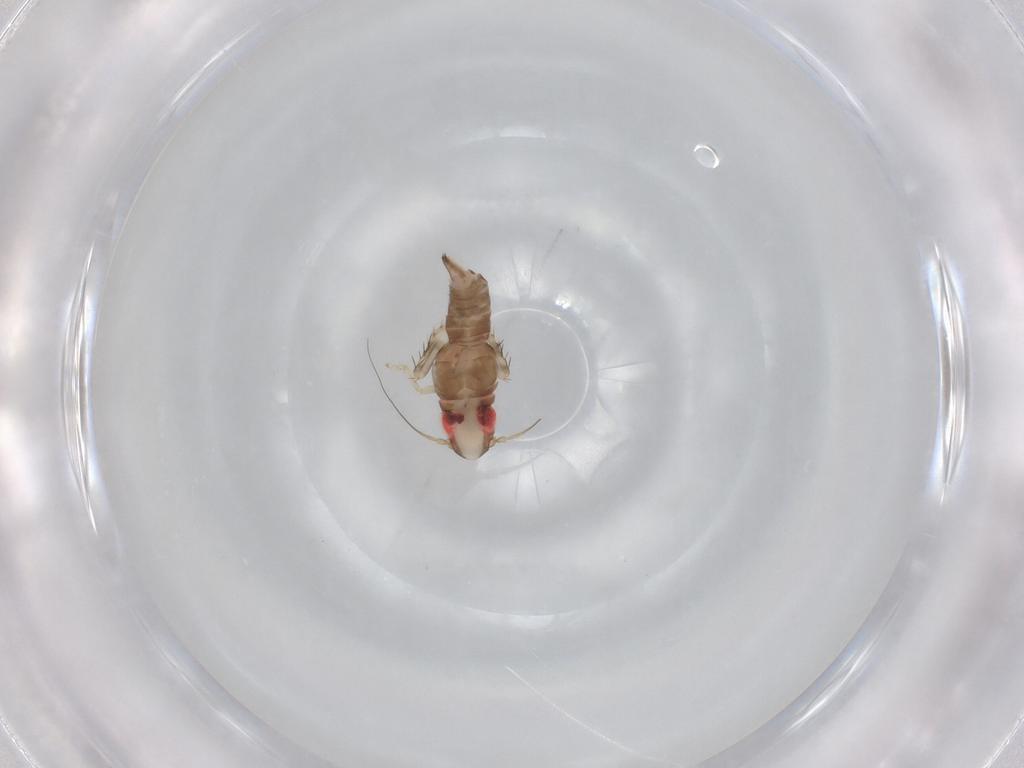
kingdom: Animalia
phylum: Arthropoda
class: Insecta
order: Hemiptera
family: Cicadellidae
